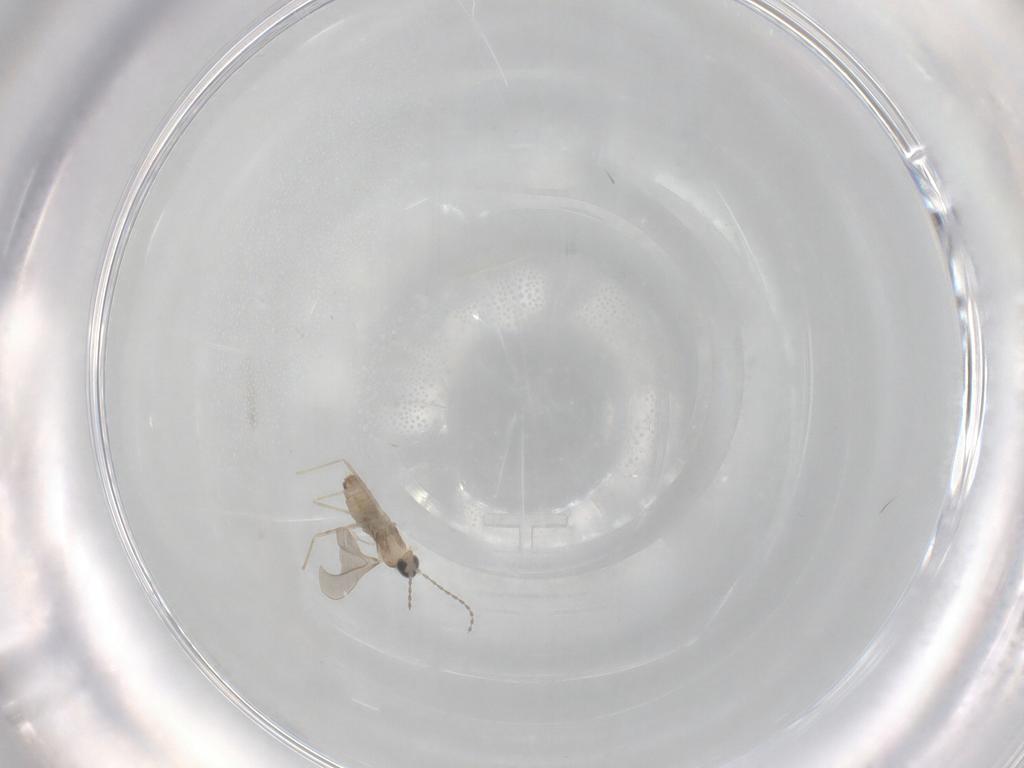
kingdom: Animalia
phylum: Arthropoda
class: Insecta
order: Diptera
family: Cecidomyiidae
